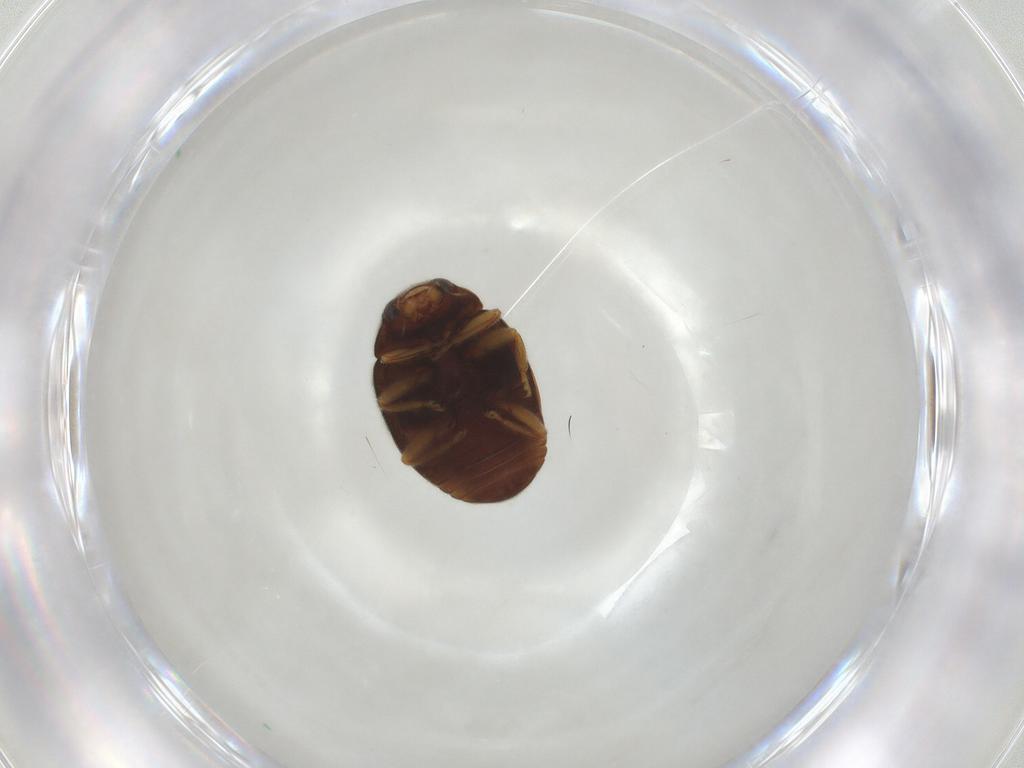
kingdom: Animalia
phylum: Arthropoda
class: Insecta
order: Coleoptera
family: Coccinellidae
